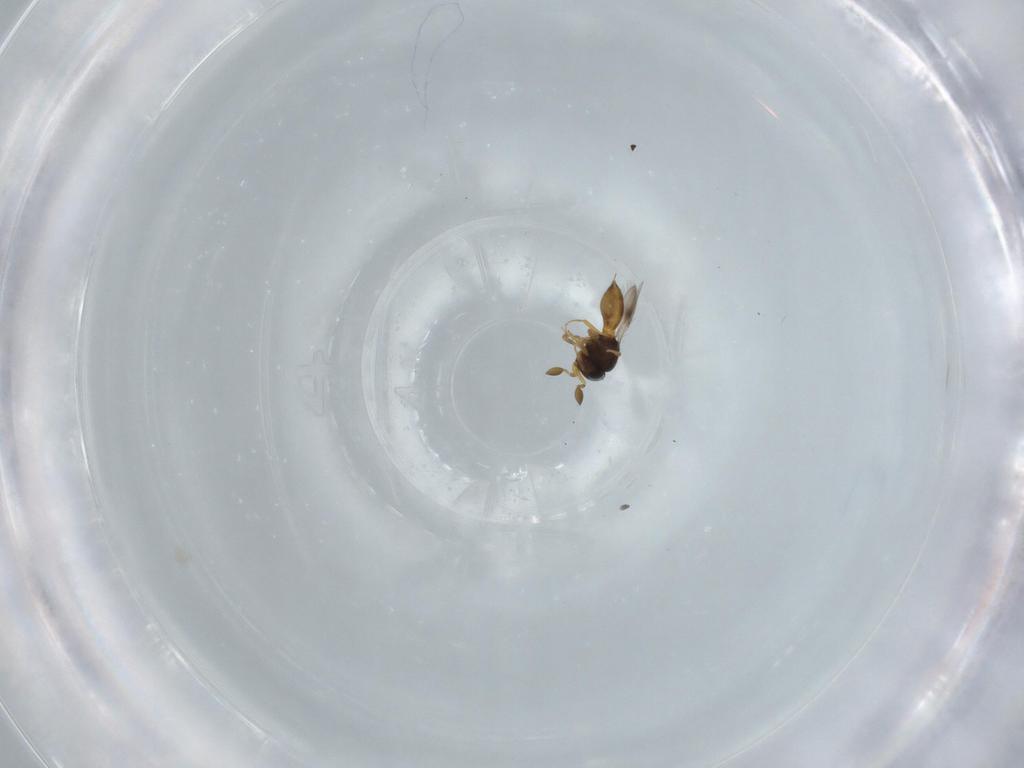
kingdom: Animalia
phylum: Arthropoda
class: Insecta
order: Hymenoptera
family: Scelionidae
